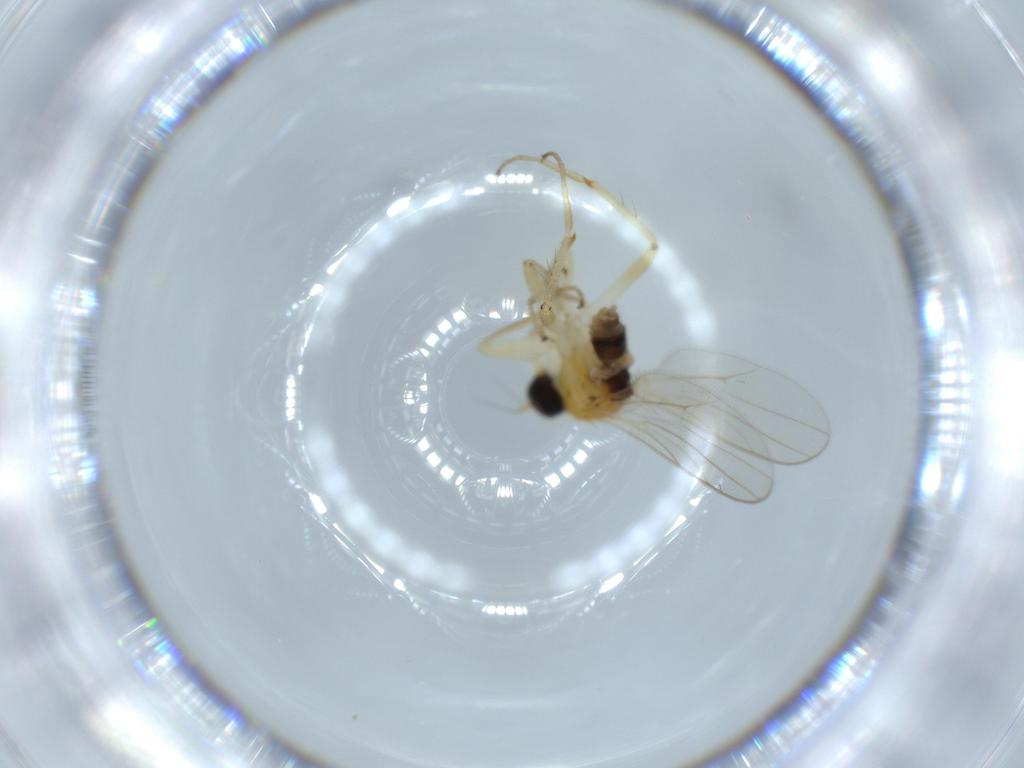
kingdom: Animalia
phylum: Arthropoda
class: Insecta
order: Diptera
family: Hybotidae
